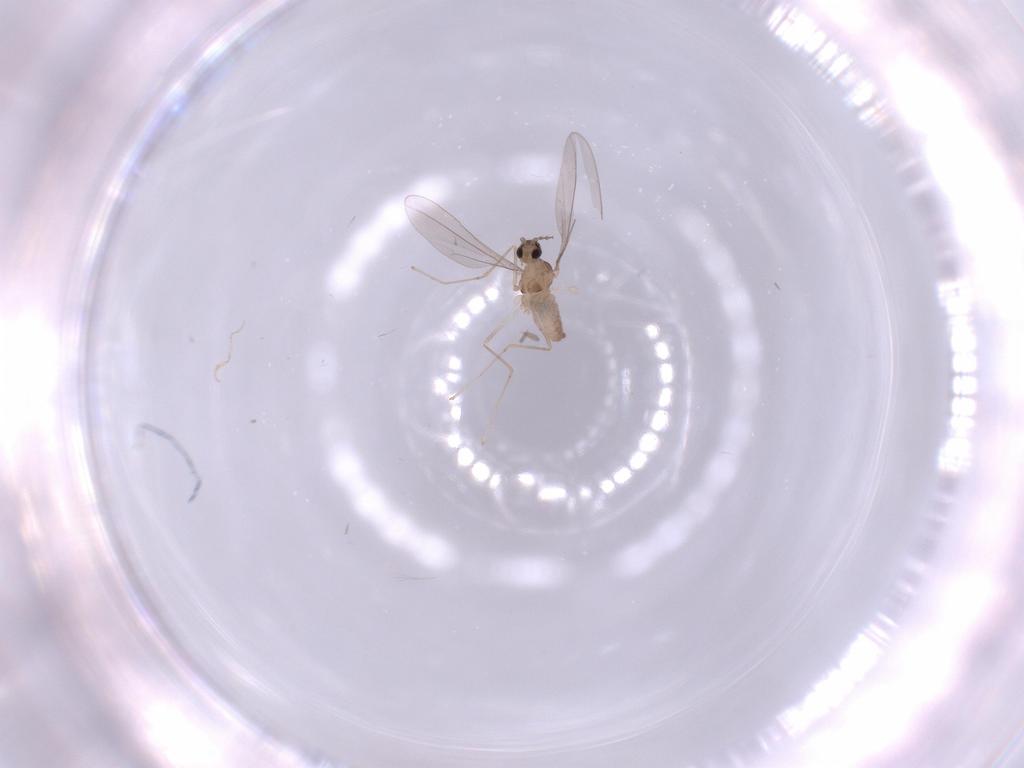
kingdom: Animalia
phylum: Arthropoda
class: Insecta
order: Diptera
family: Cecidomyiidae
